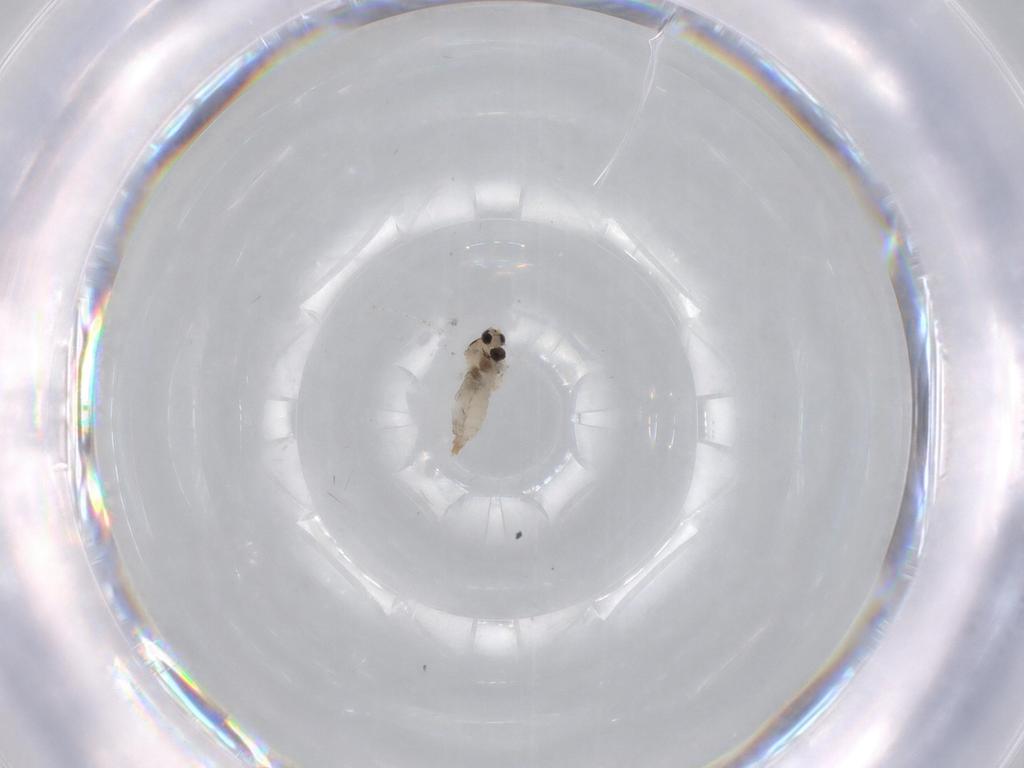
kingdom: Animalia
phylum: Arthropoda
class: Insecta
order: Diptera
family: Cecidomyiidae
